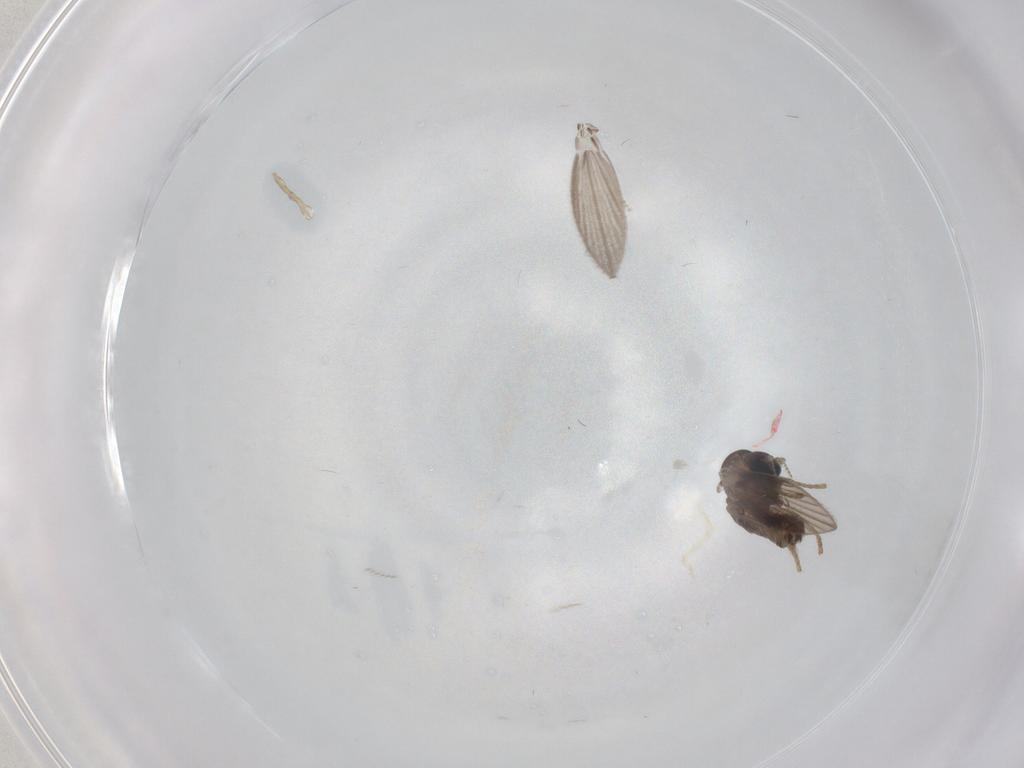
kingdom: Animalia
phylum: Arthropoda
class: Insecta
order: Diptera
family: Psychodidae
